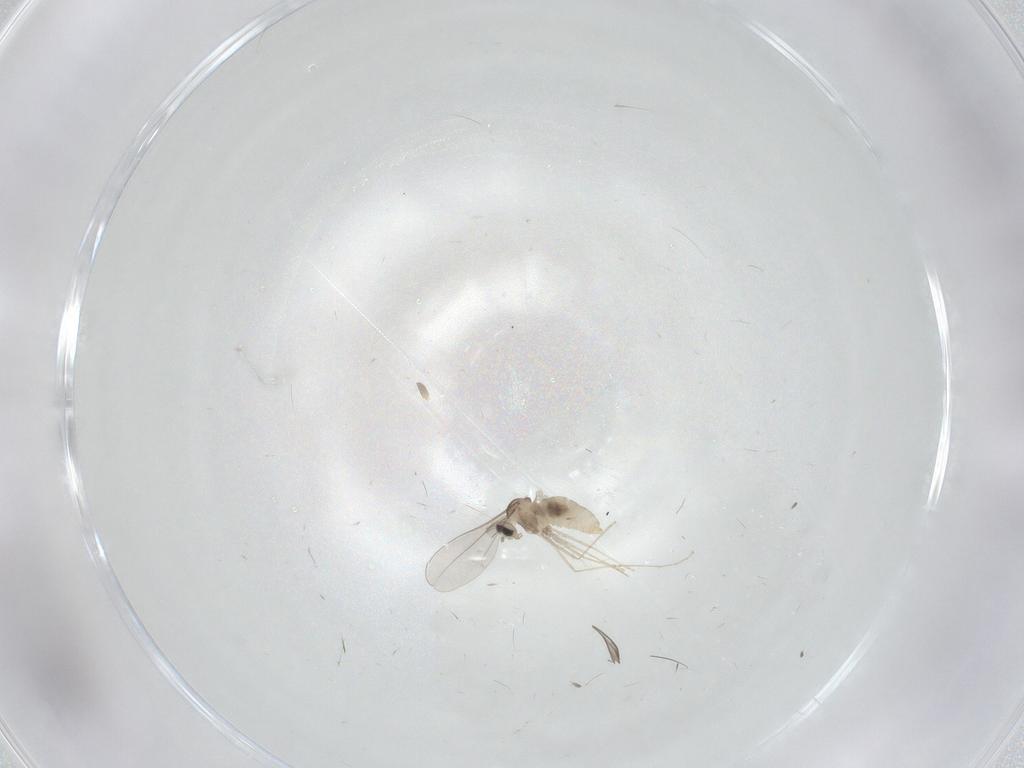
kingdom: Animalia
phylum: Arthropoda
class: Insecta
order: Diptera
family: Cecidomyiidae
